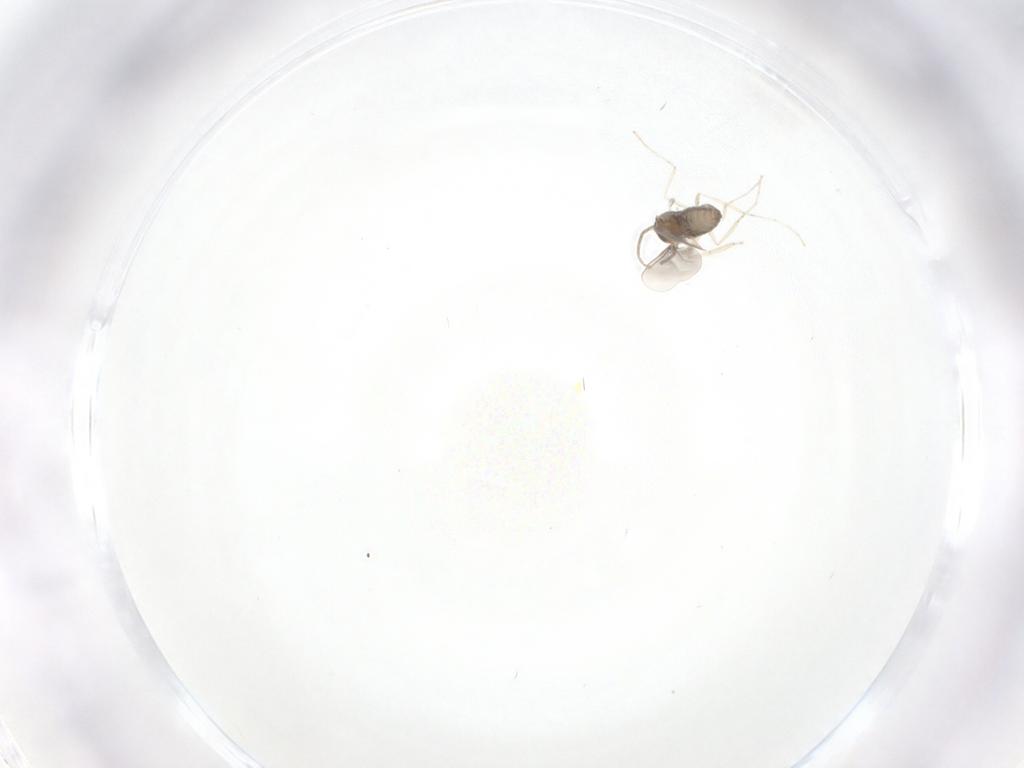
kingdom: Animalia
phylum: Arthropoda
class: Insecta
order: Diptera
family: Cecidomyiidae
